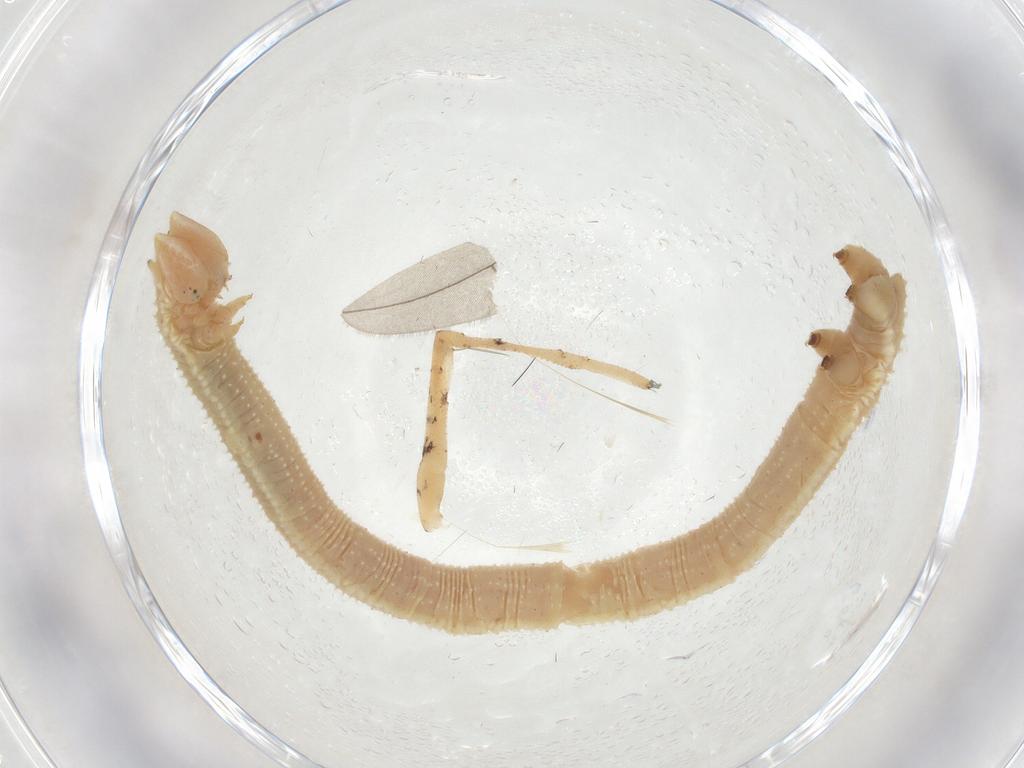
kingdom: Animalia
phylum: Arthropoda
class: Insecta
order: Lepidoptera
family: Geometridae
